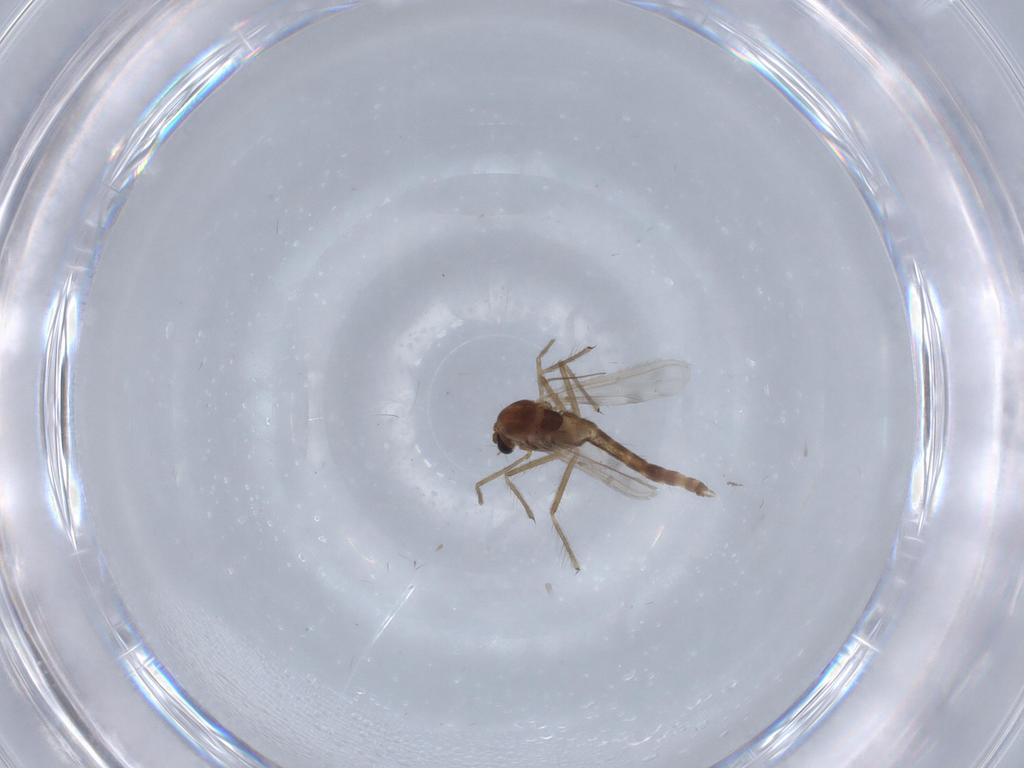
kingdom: Animalia
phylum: Arthropoda
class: Insecta
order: Diptera
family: Chironomidae
